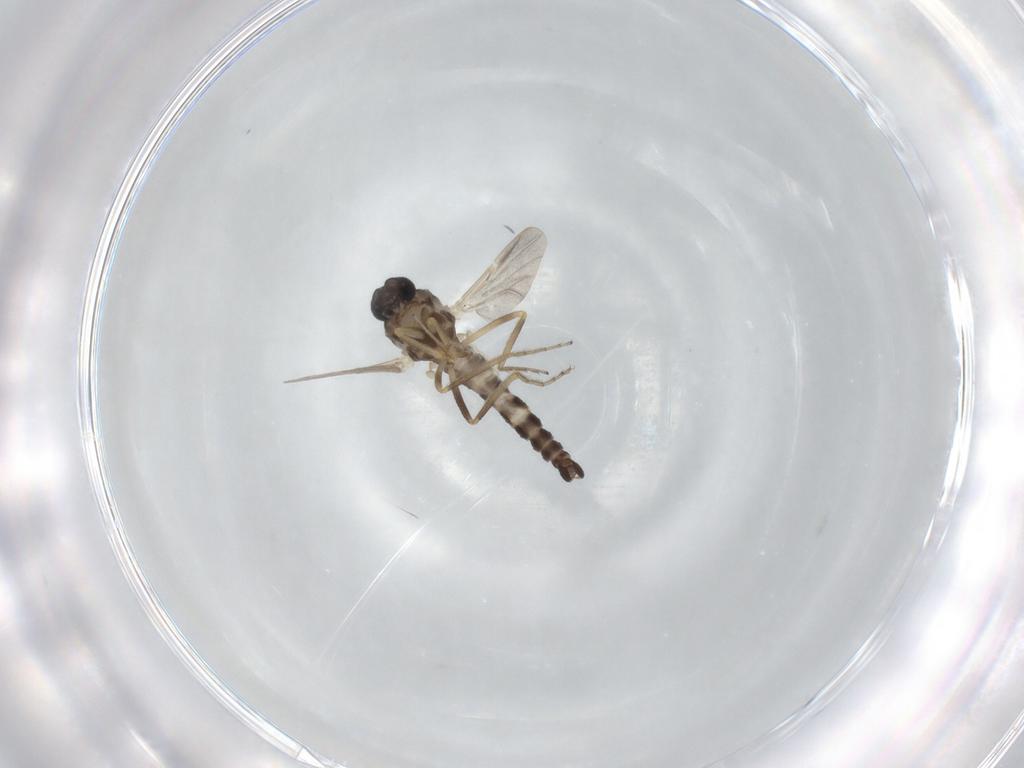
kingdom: Animalia
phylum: Arthropoda
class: Insecta
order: Diptera
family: Ceratopogonidae
